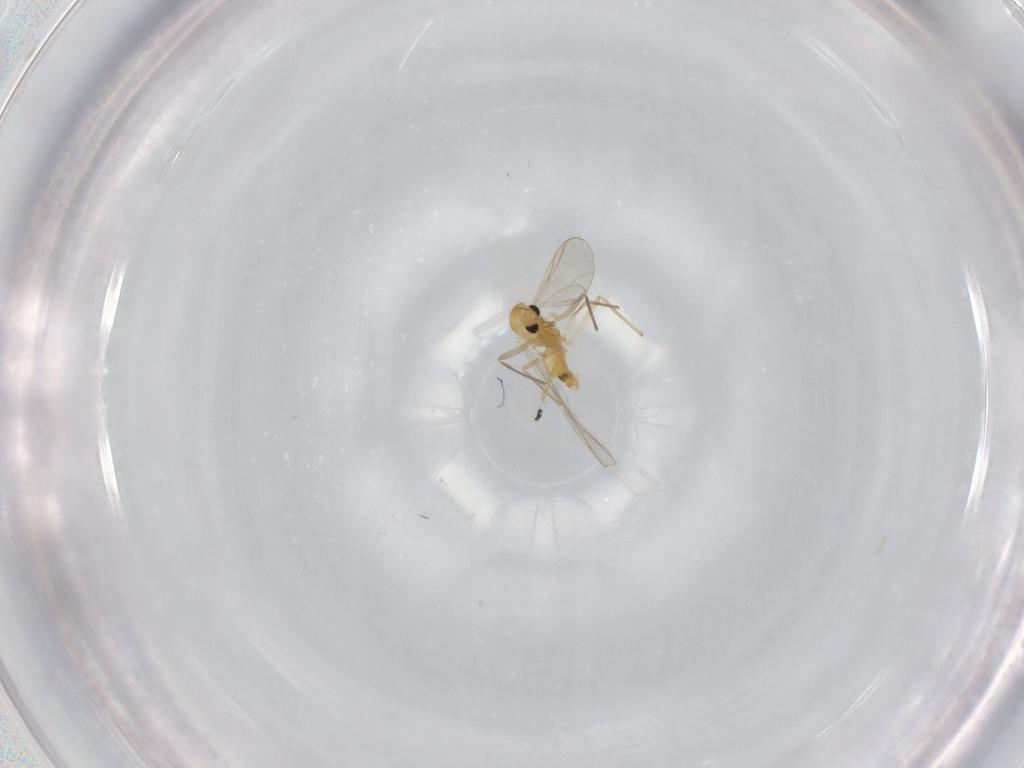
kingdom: Animalia
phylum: Arthropoda
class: Insecta
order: Diptera
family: Chironomidae
